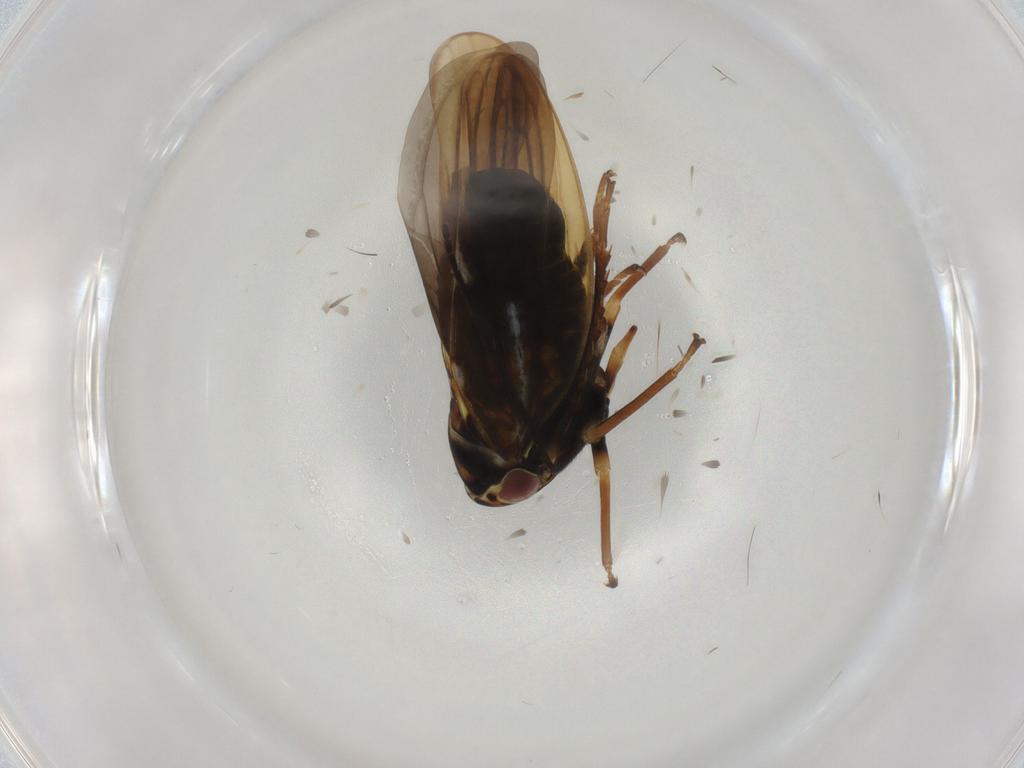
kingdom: Animalia
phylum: Arthropoda
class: Insecta
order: Hemiptera
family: Cicadellidae
